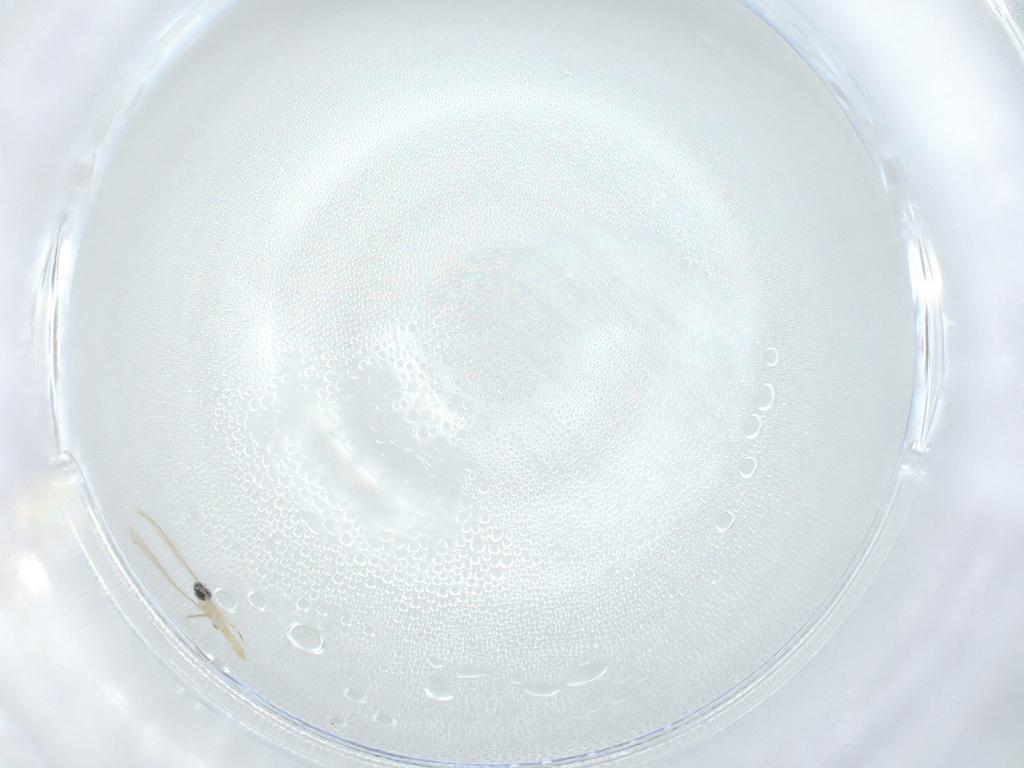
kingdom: Animalia
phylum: Arthropoda
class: Insecta
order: Diptera
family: Cecidomyiidae
